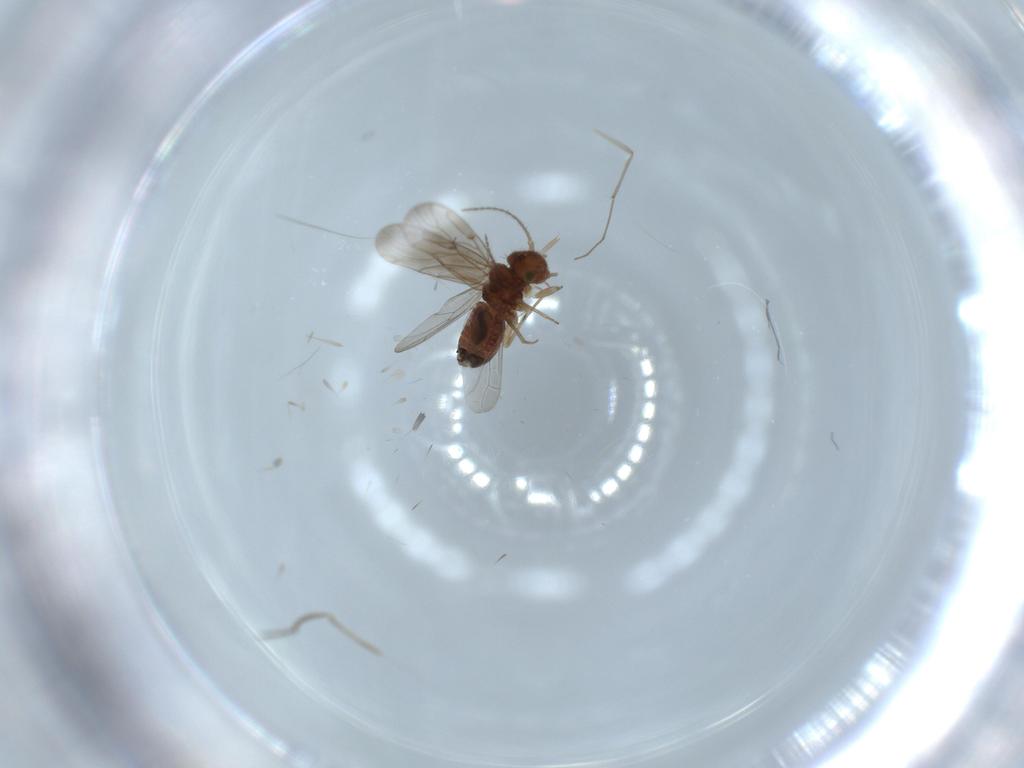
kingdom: Animalia
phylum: Arthropoda
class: Insecta
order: Psocodea
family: Ectopsocidae
